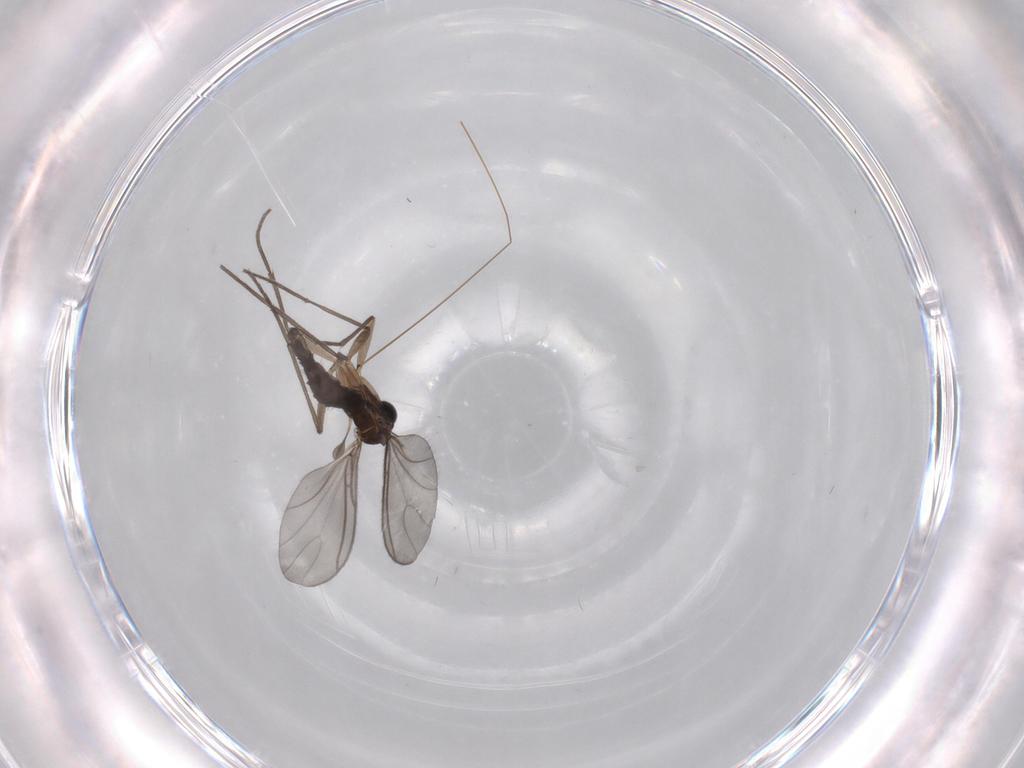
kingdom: Animalia
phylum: Arthropoda
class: Insecta
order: Diptera
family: Sciaridae
